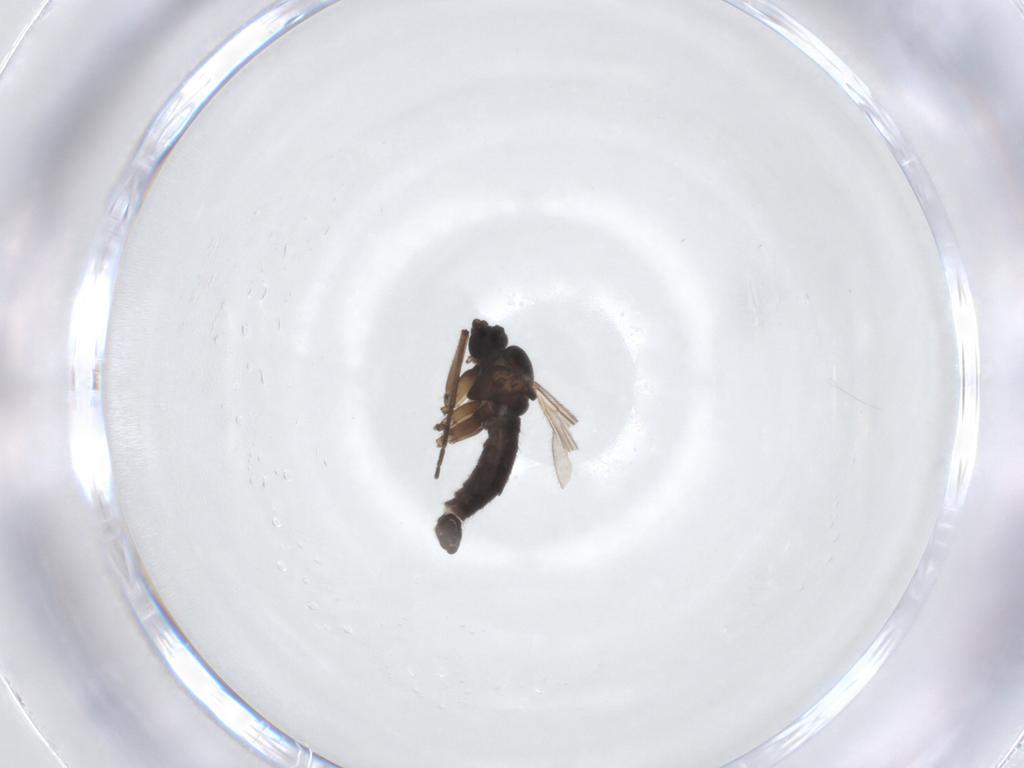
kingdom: Animalia
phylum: Arthropoda
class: Insecta
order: Diptera
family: Sciaridae
